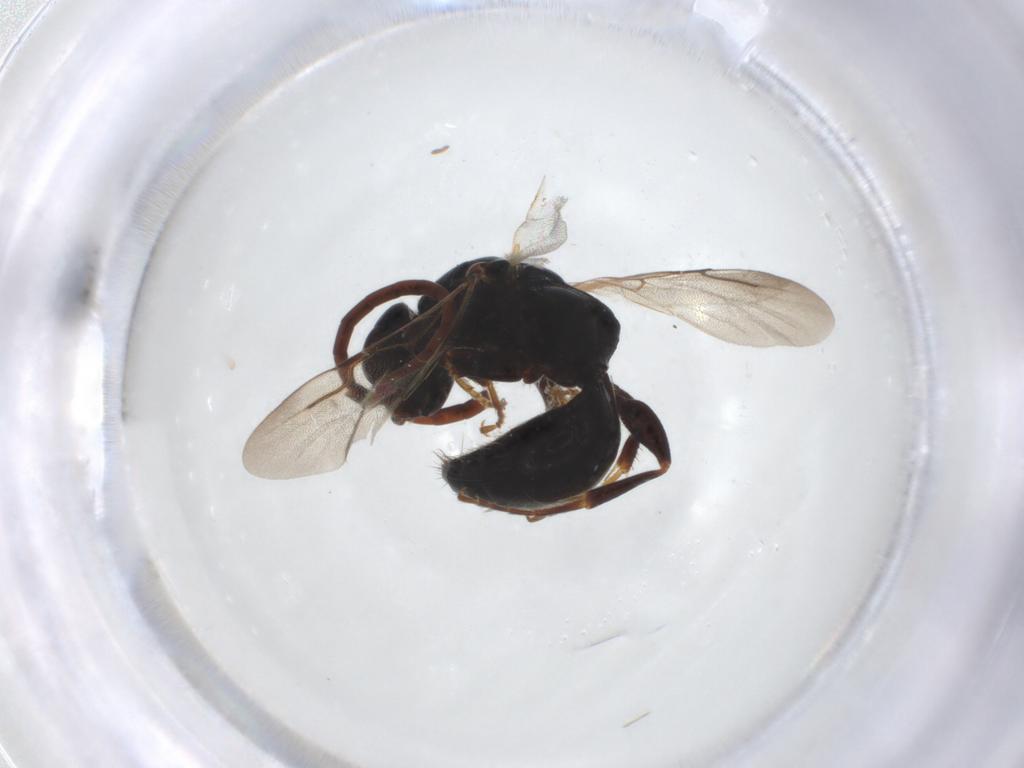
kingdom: Animalia
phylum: Arthropoda
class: Insecta
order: Hymenoptera
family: Bethylidae
